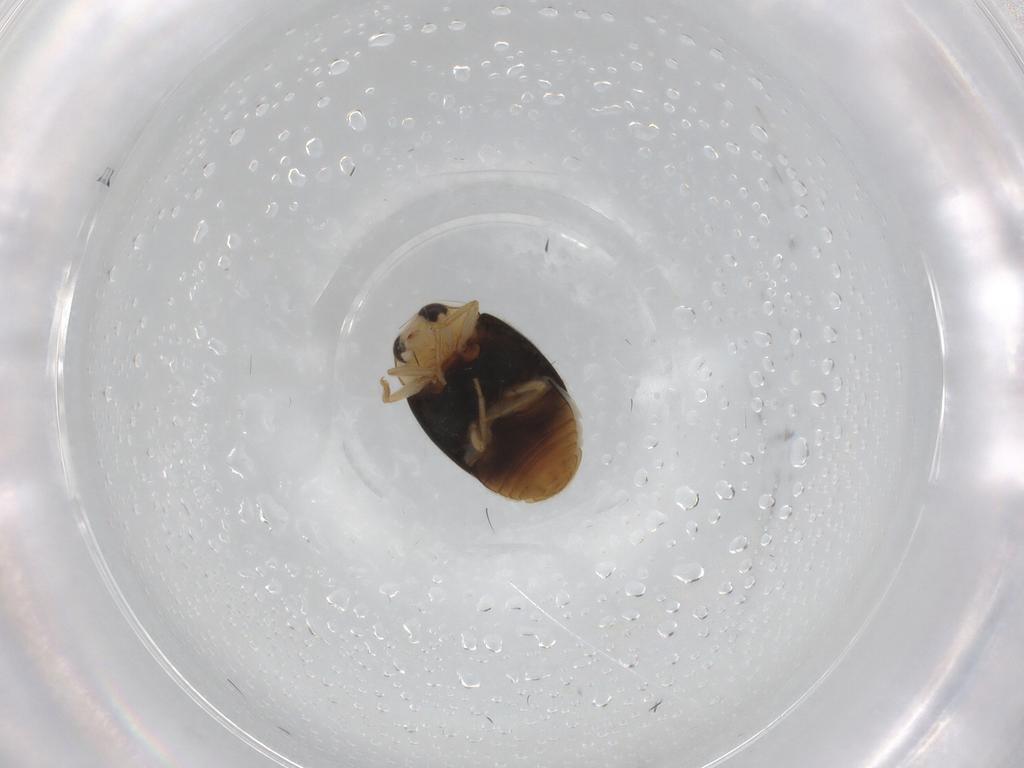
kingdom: Animalia
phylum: Arthropoda
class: Insecta
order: Coleoptera
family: Coccinellidae
